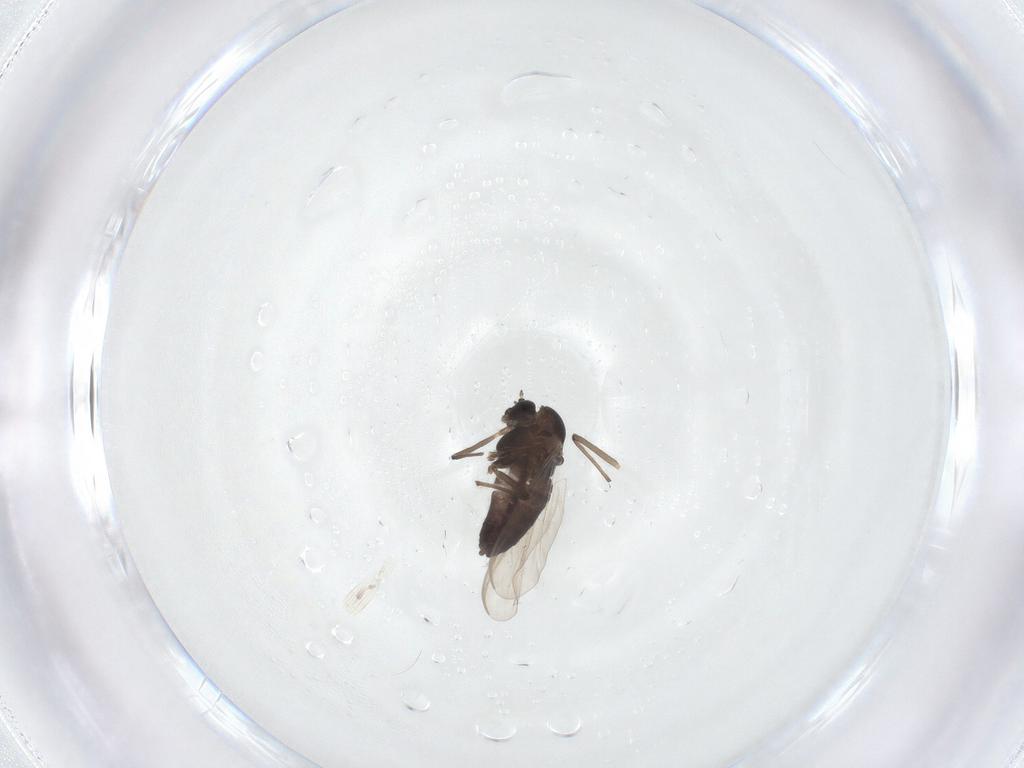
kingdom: Animalia
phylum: Arthropoda
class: Insecta
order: Diptera
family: Chironomidae
